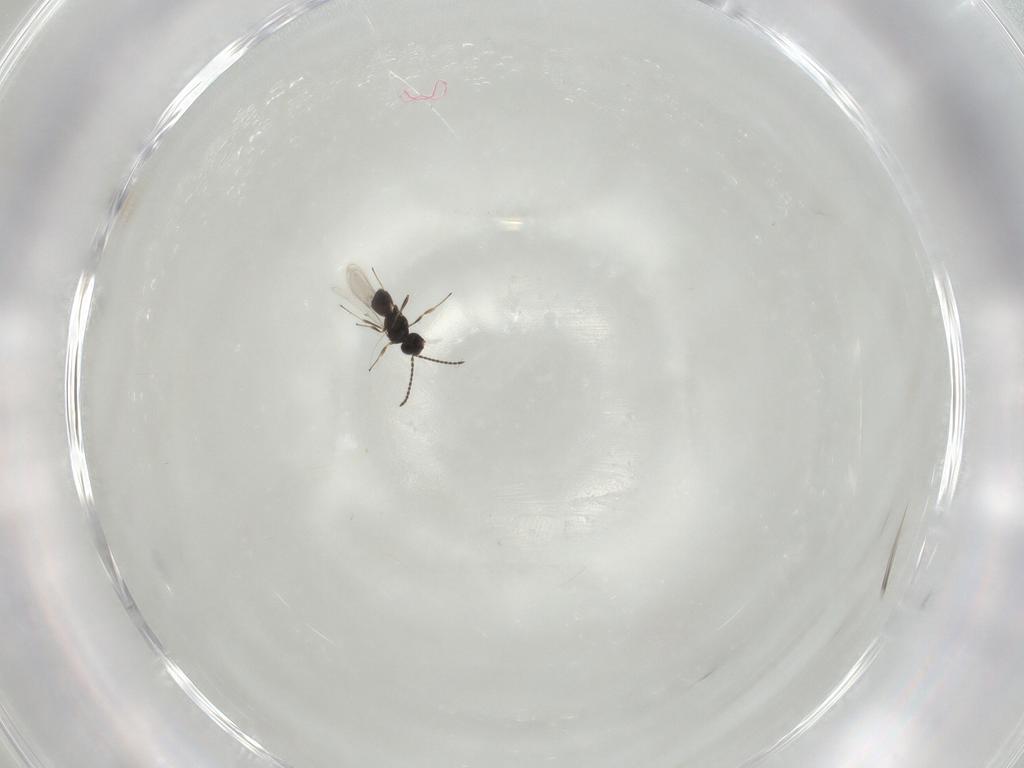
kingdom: Animalia
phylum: Arthropoda
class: Insecta
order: Hymenoptera
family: Scelionidae
